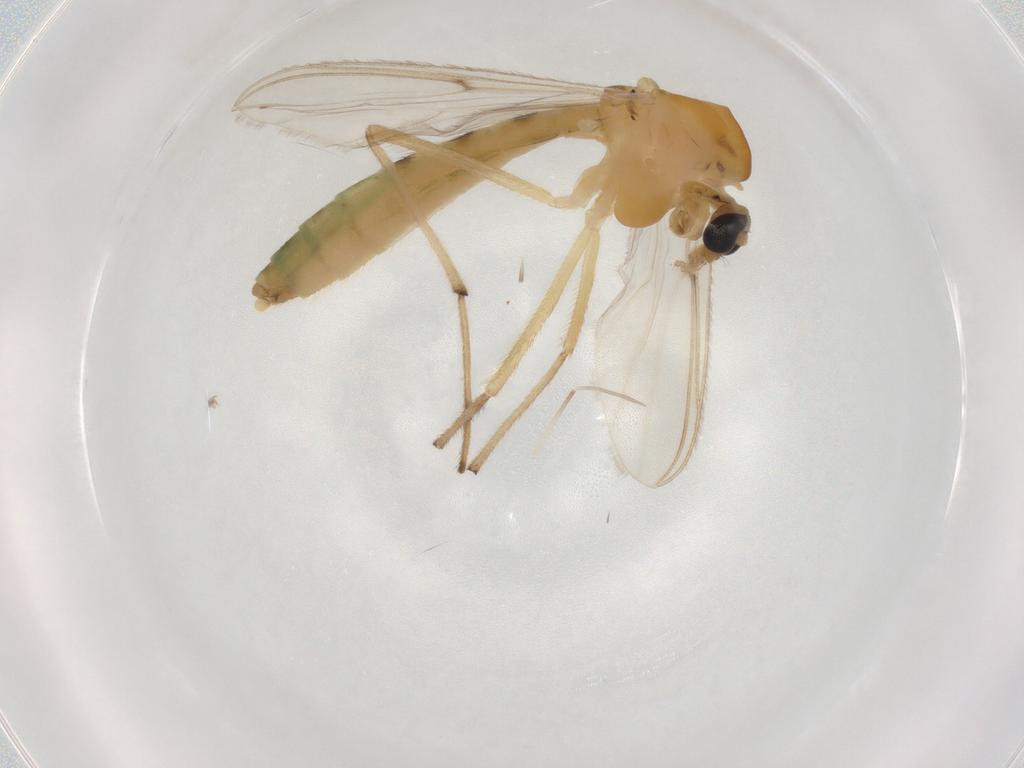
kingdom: Animalia
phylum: Arthropoda
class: Insecta
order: Diptera
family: Chironomidae
